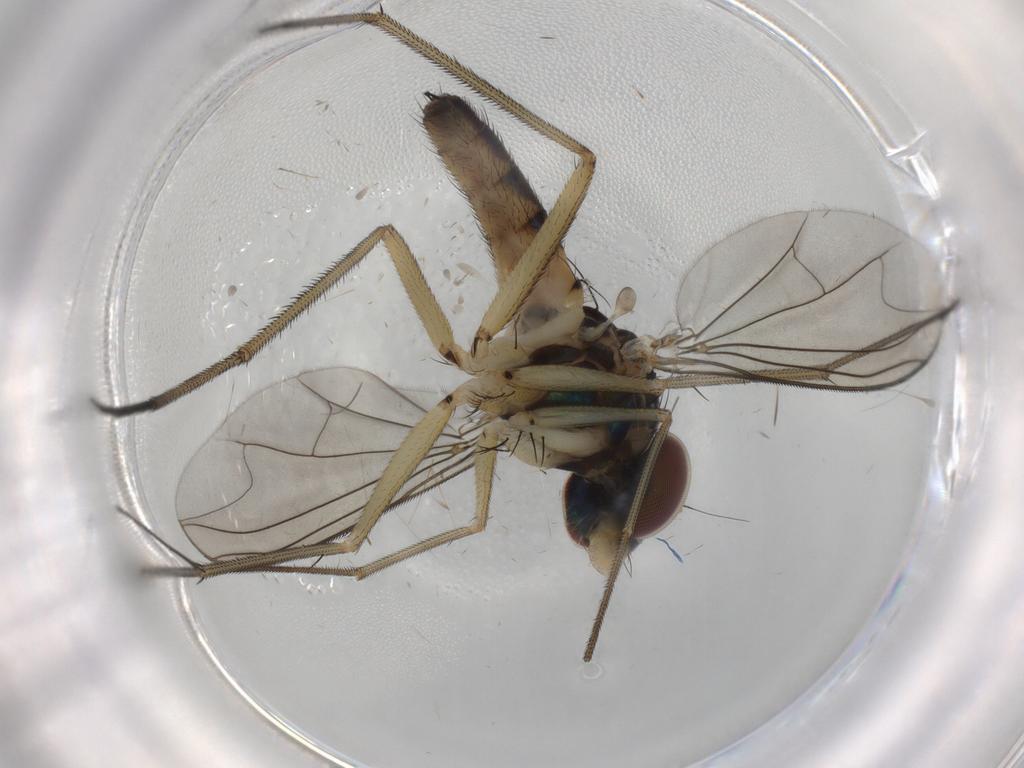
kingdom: Animalia
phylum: Arthropoda
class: Insecta
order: Diptera
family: Dolichopodidae
